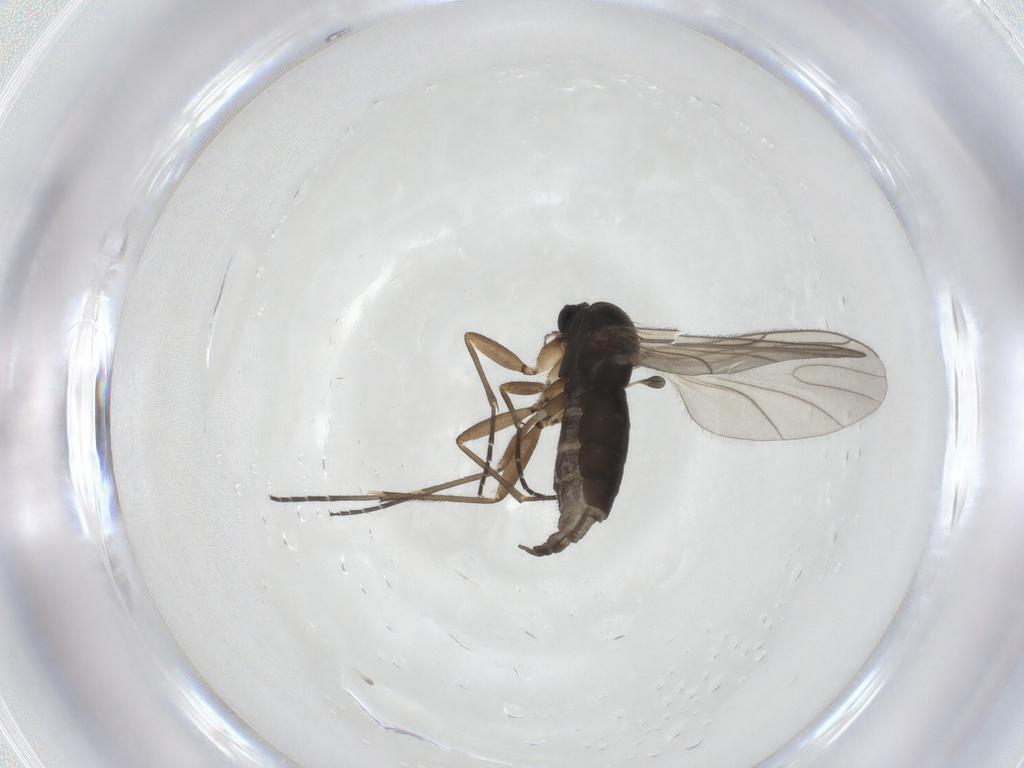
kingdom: Animalia
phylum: Arthropoda
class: Insecta
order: Diptera
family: Sciaridae
